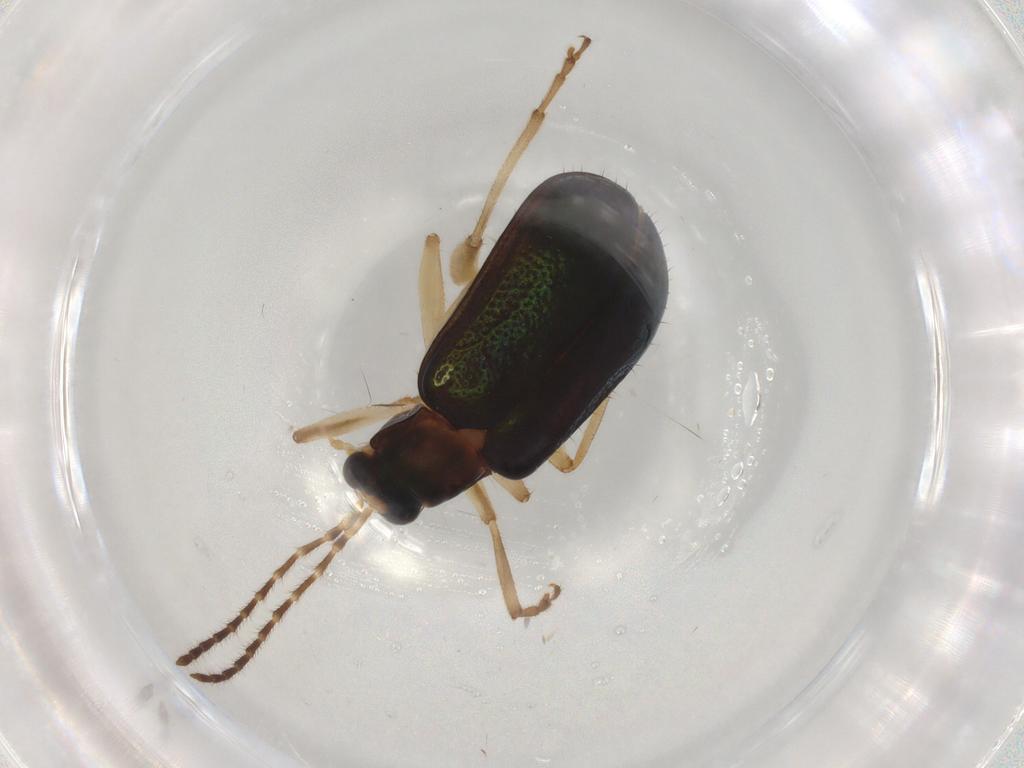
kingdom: Animalia
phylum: Arthropoda
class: Insecta
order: Coleoptera
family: Chrysomelidae
